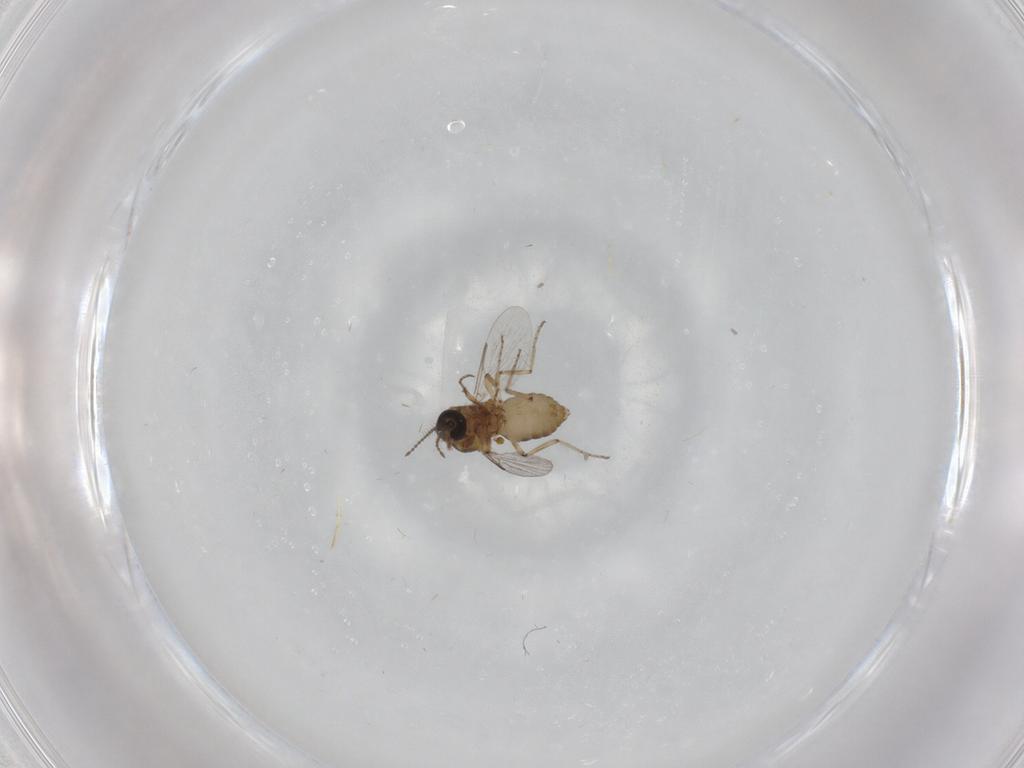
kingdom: Animalia
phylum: Arthropoda
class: Insecta
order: Diptera
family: Ceratopogonidae
